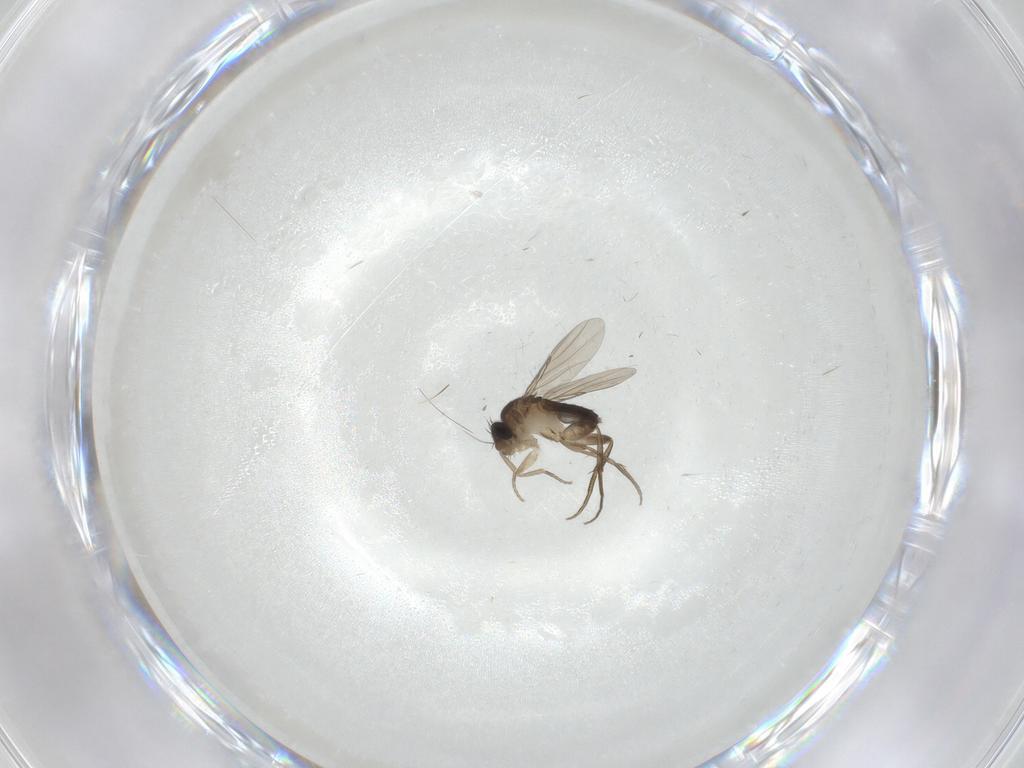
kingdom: Animalia
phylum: Arthropoda
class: Insecta
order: Diptera
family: Phoridae
